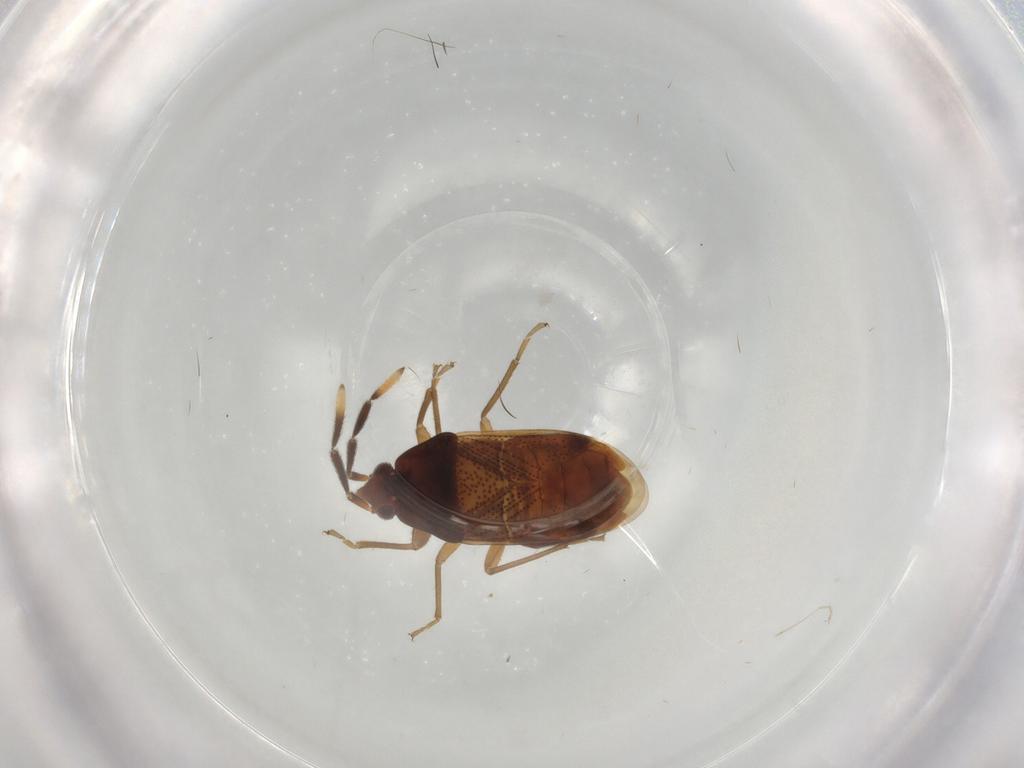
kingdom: Animalia
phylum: Arthropoda
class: Insecta
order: Hemiptera
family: Rhyparochromidae
